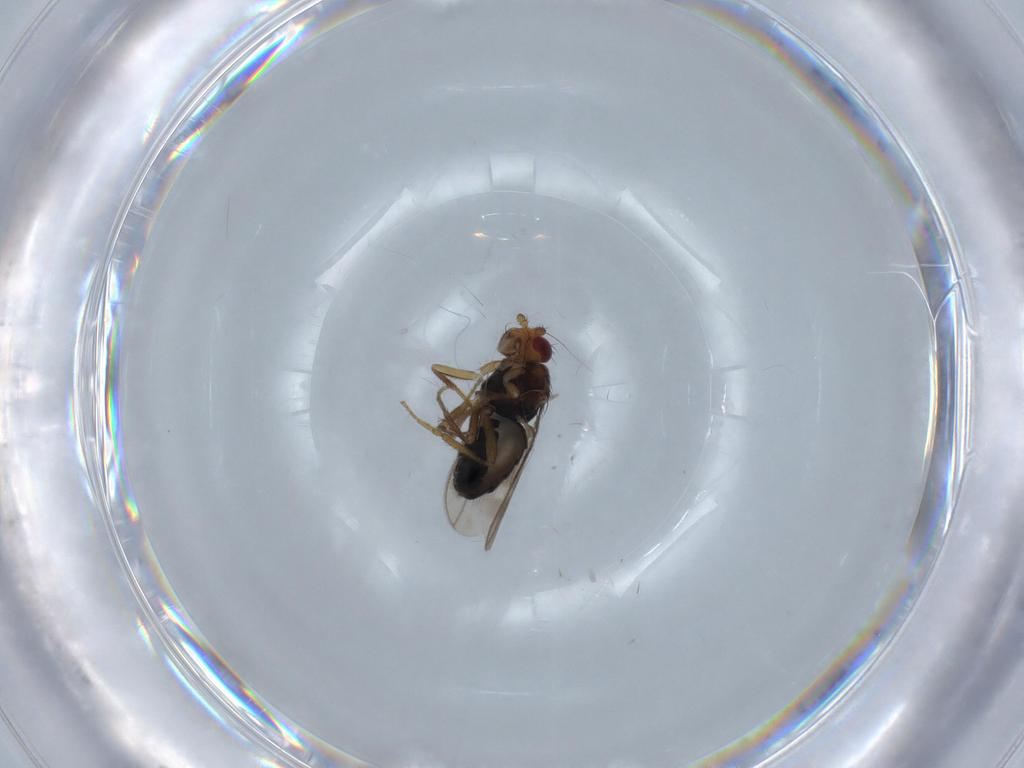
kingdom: Animalia
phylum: Arthropoda
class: Insecta
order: Diptera
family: Sphaeroceridae
